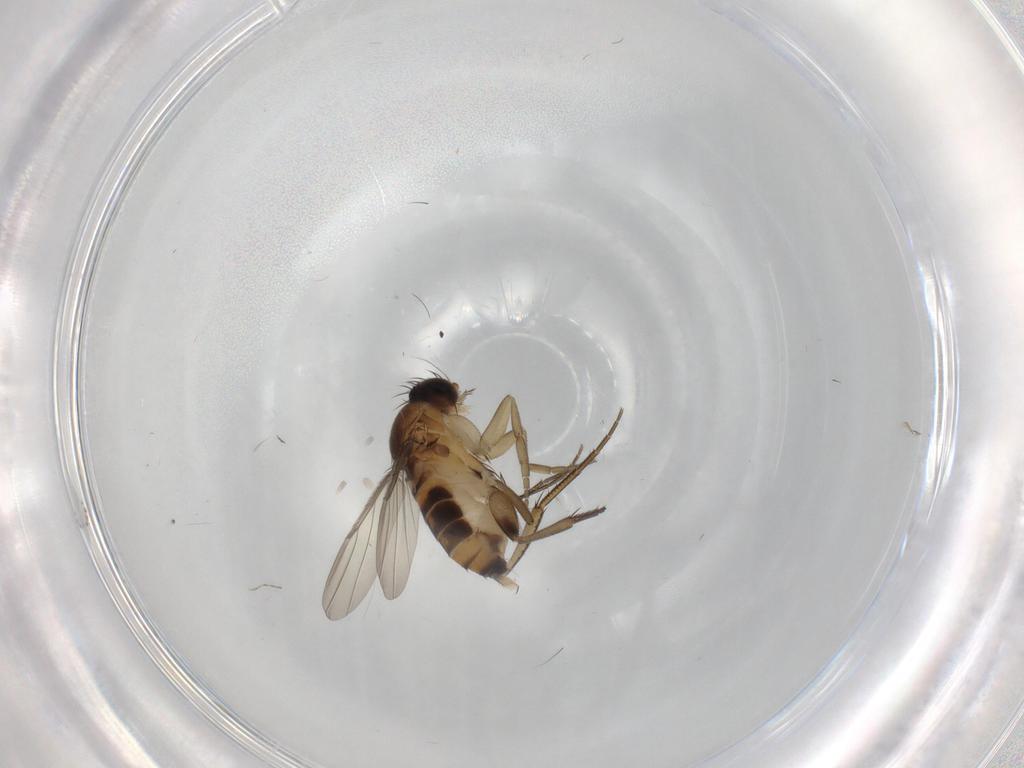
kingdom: Animalia
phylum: Arthropoda
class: Insecta
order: Diptera
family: Phoridae
